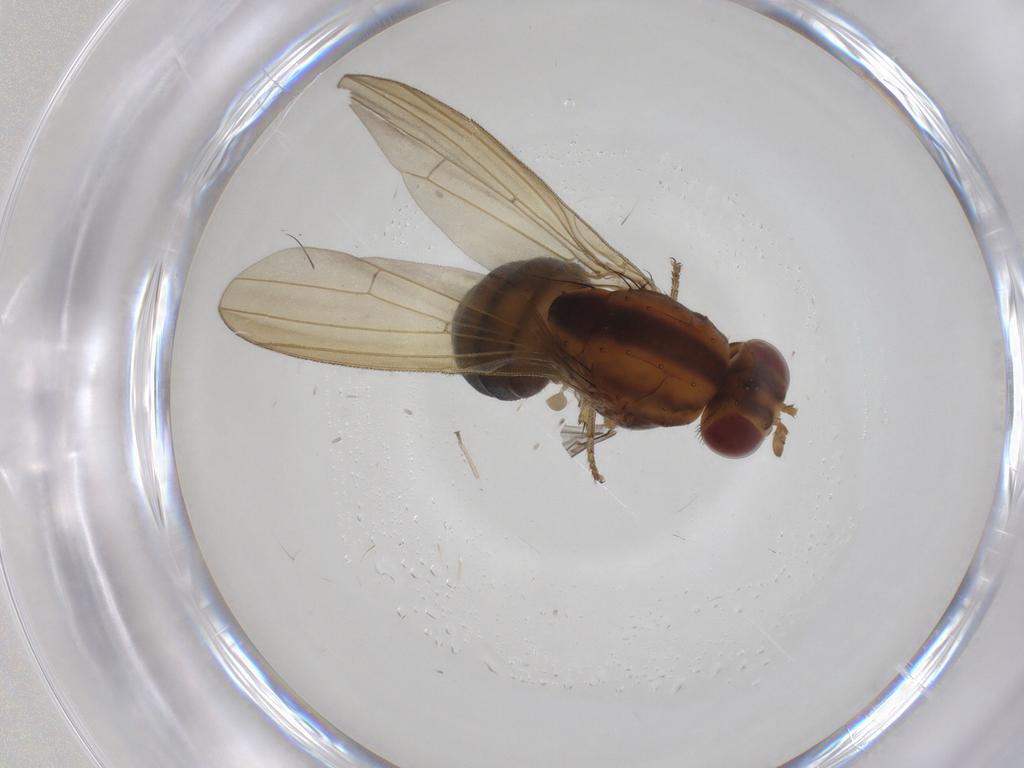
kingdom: Animalia
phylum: Arthropoda
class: Insecta
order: Diptera
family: Lauxaniidae
